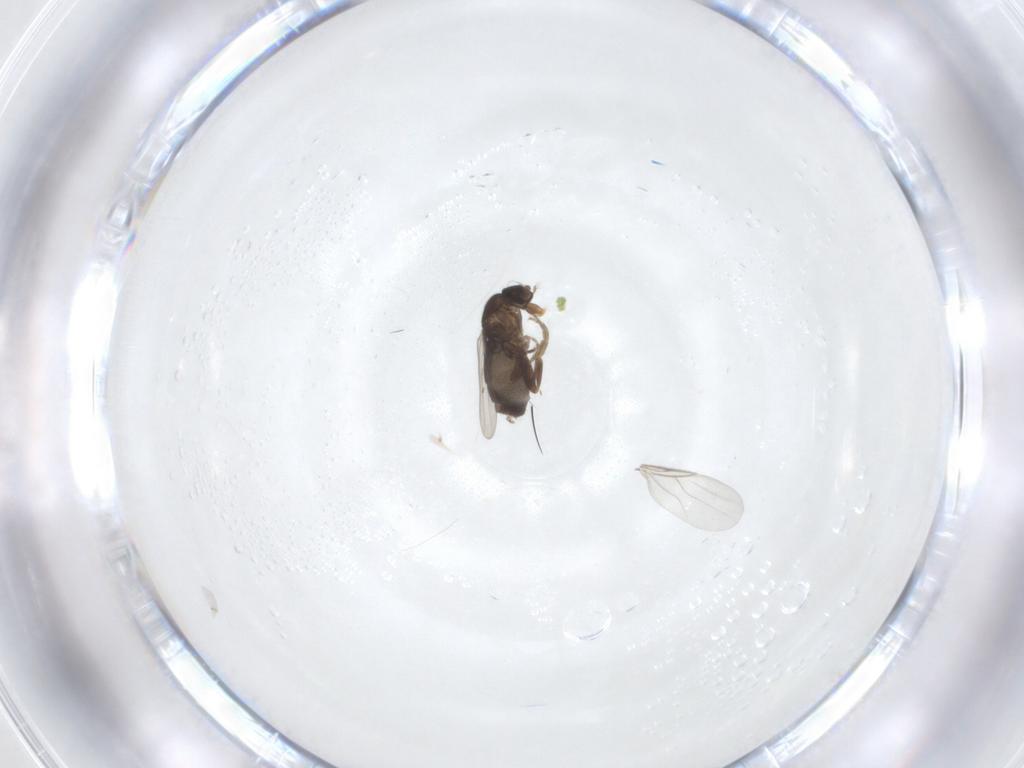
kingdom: Animalia
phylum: Arthropoda
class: Insecta
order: Diptera
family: Phoridae
